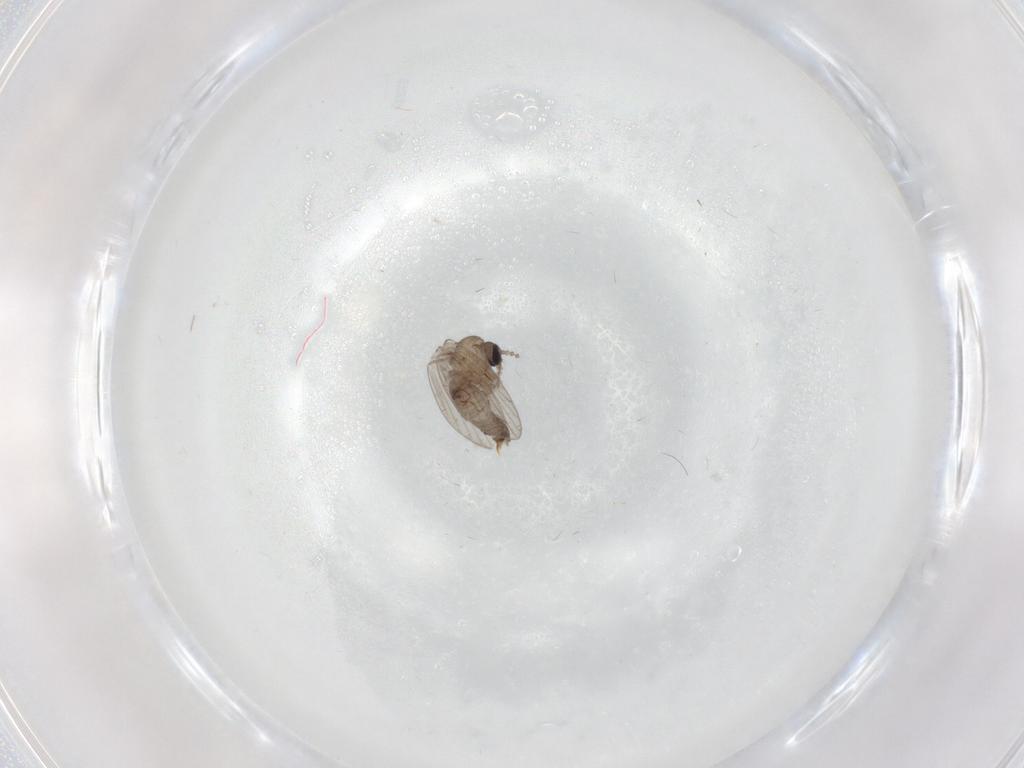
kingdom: Animalia
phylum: Arthropoda
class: Insecta
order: Diptera
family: Psychodidae
